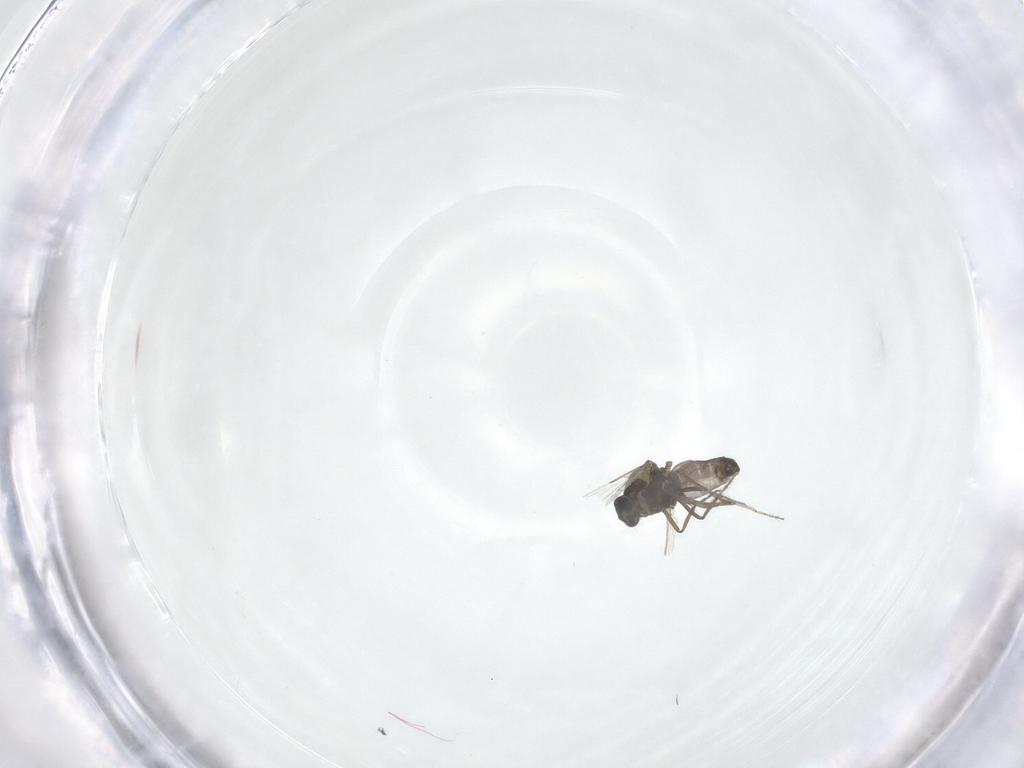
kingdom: Animalia
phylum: Arthropoda
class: Insecta
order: Diptera
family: Ceratopogonidae
